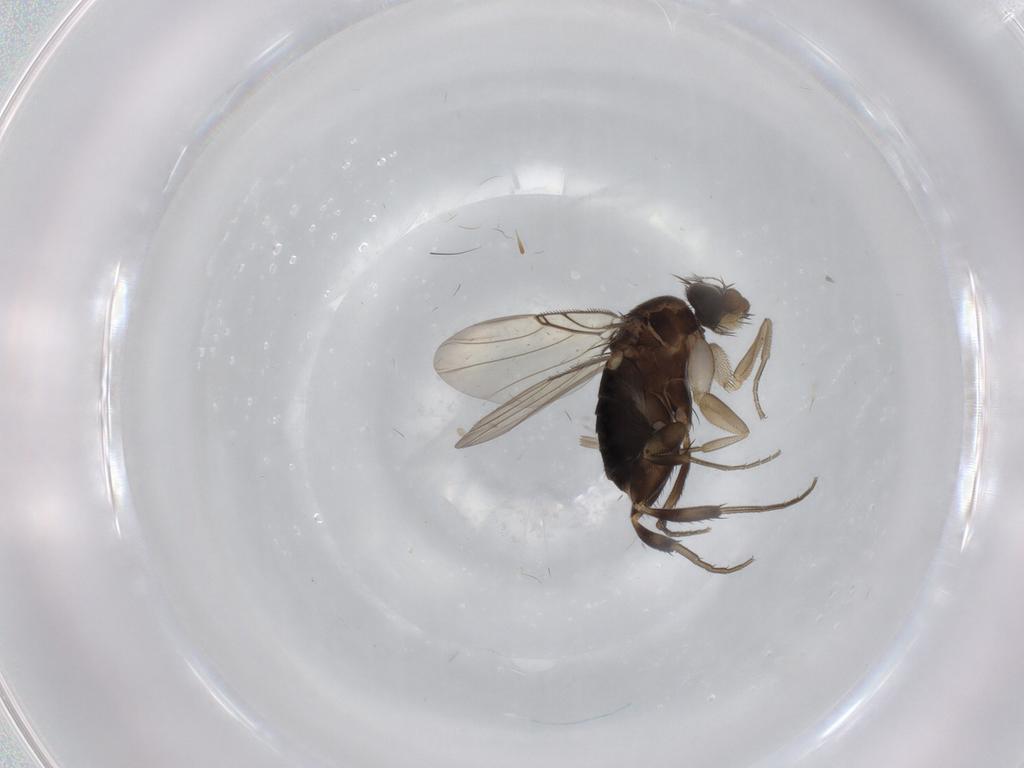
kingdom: Animalia
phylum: Arthropoda
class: Insecta
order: Diptera
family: Phoridae
